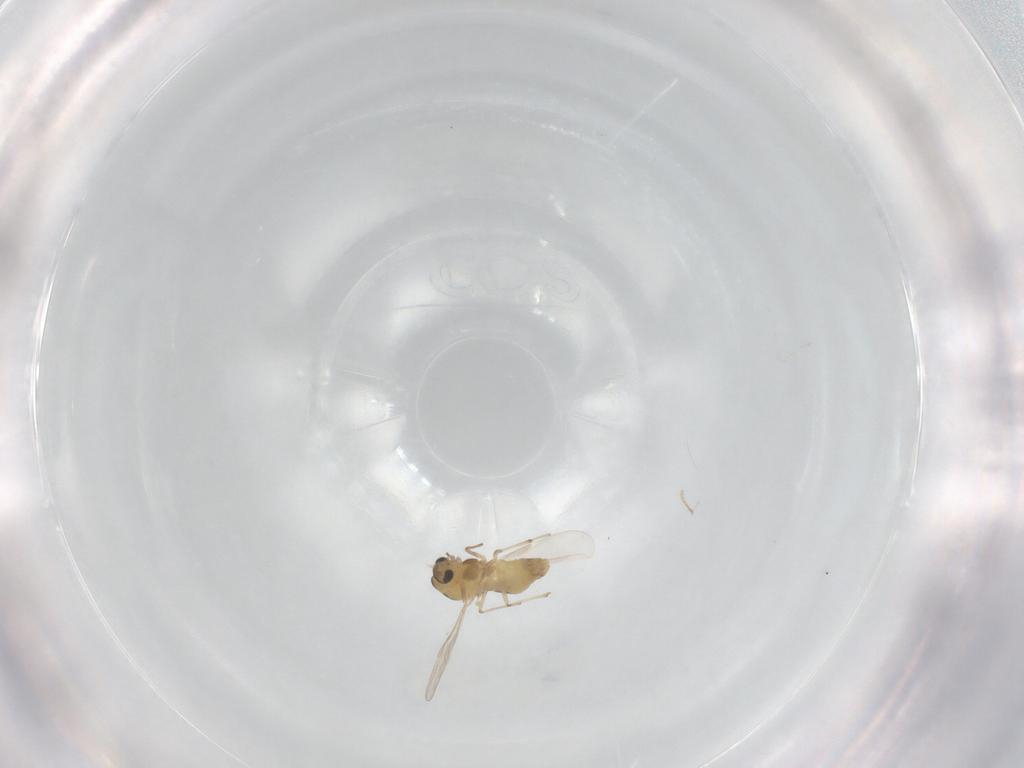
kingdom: Animalia
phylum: Arthropoda
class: Insecta
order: Diptera
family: Chironomidae
